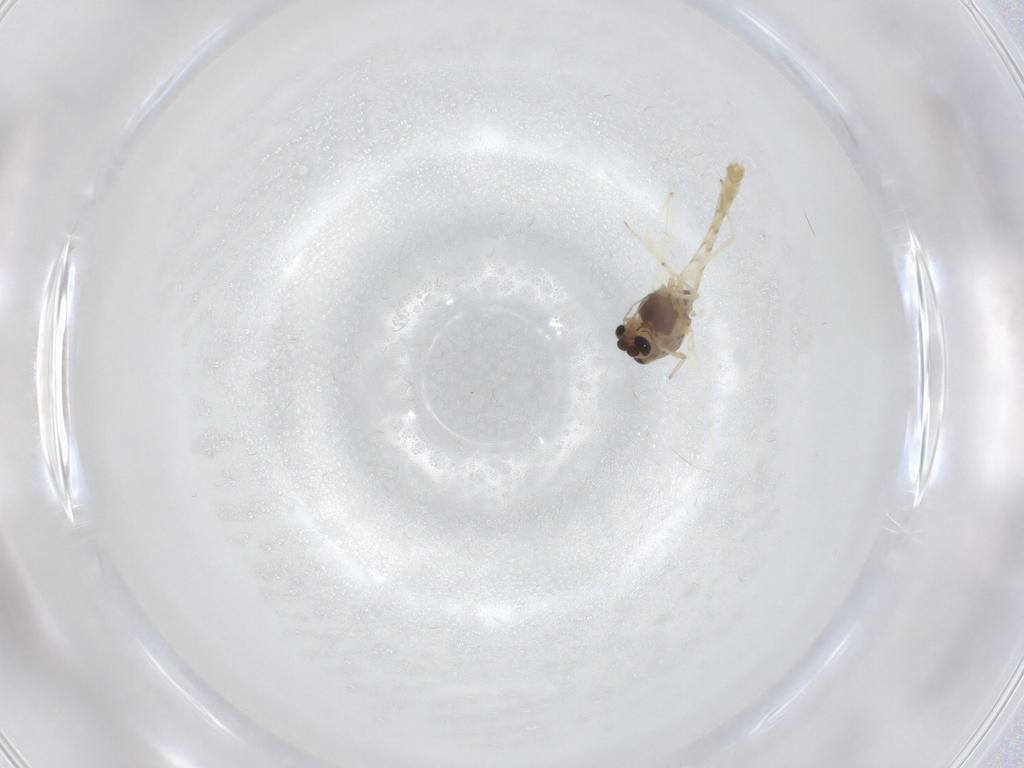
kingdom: Animalia
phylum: Arthropoda
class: Insecta
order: Diptera
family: Chironomidae
